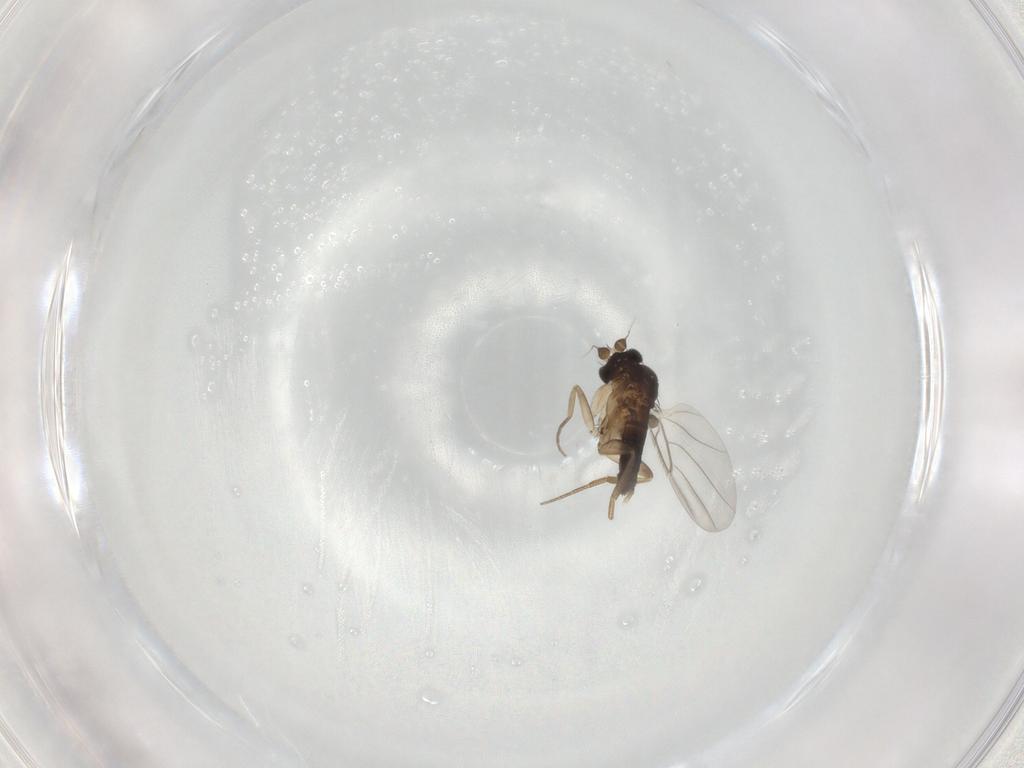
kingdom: Animalia
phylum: Arthropoda
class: Insecta
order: Diptera
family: Phoridae
